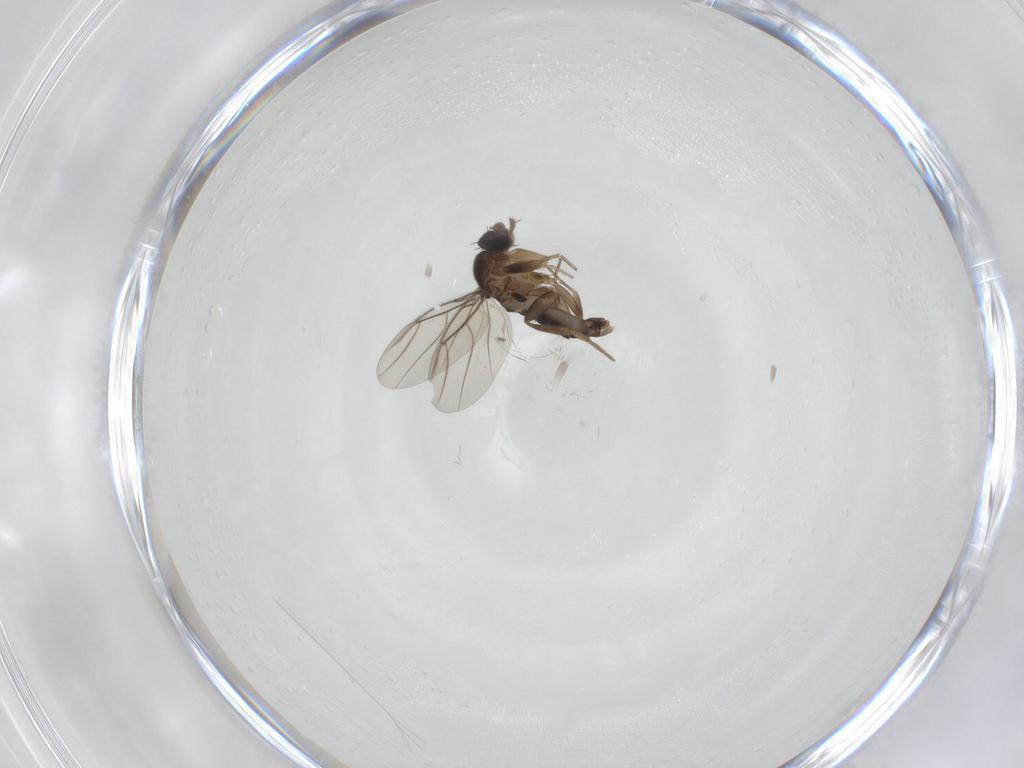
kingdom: Animalia
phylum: Arthropoda
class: Insecta
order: Diptera
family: Phoridae
